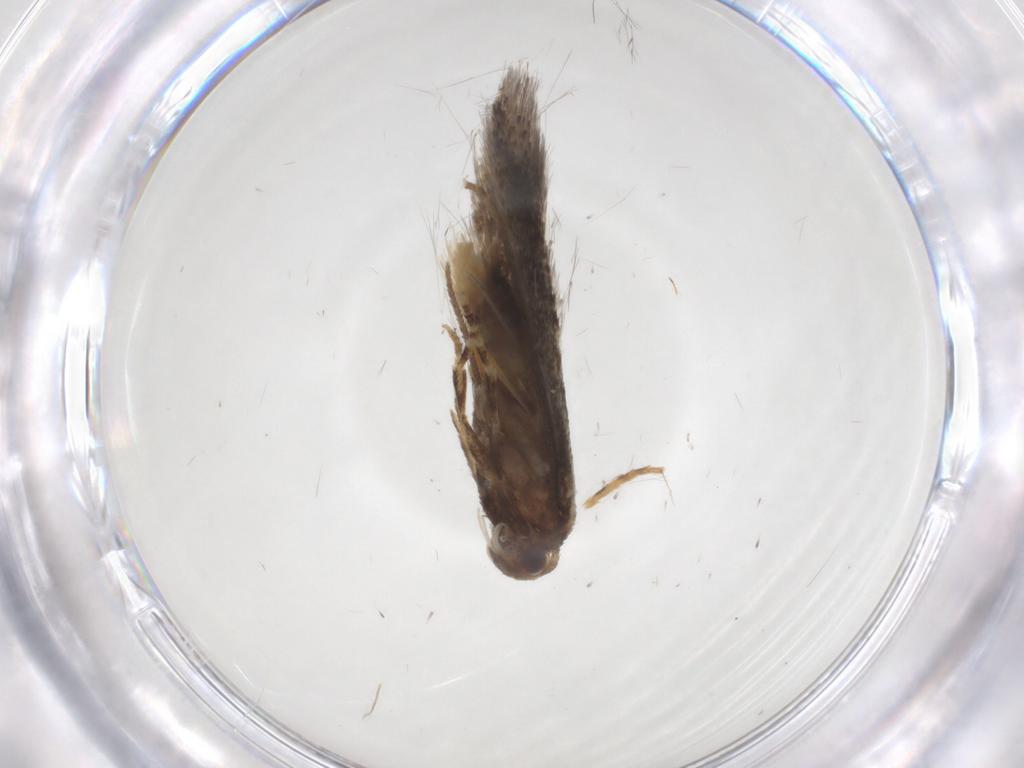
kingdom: Animalia
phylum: Arthropoda
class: Insecta
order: Lepidoptera
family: Elachistidae
